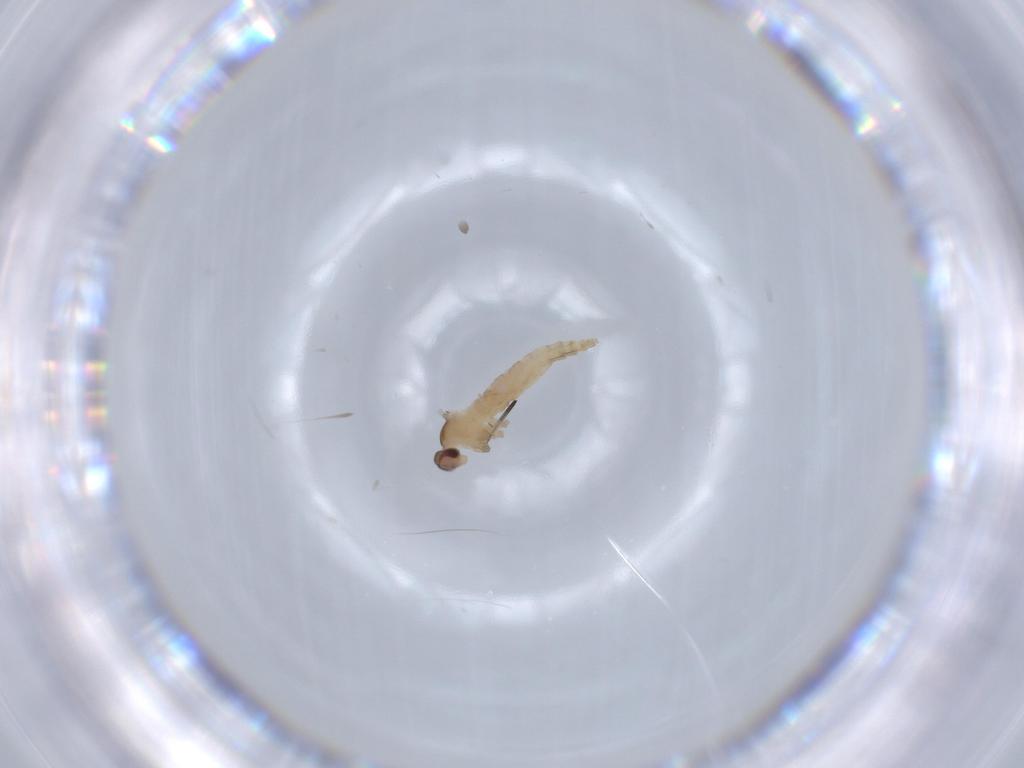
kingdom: Animalia
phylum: Arthropoda
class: Insecta
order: Diptera
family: Cecidomyiidae
